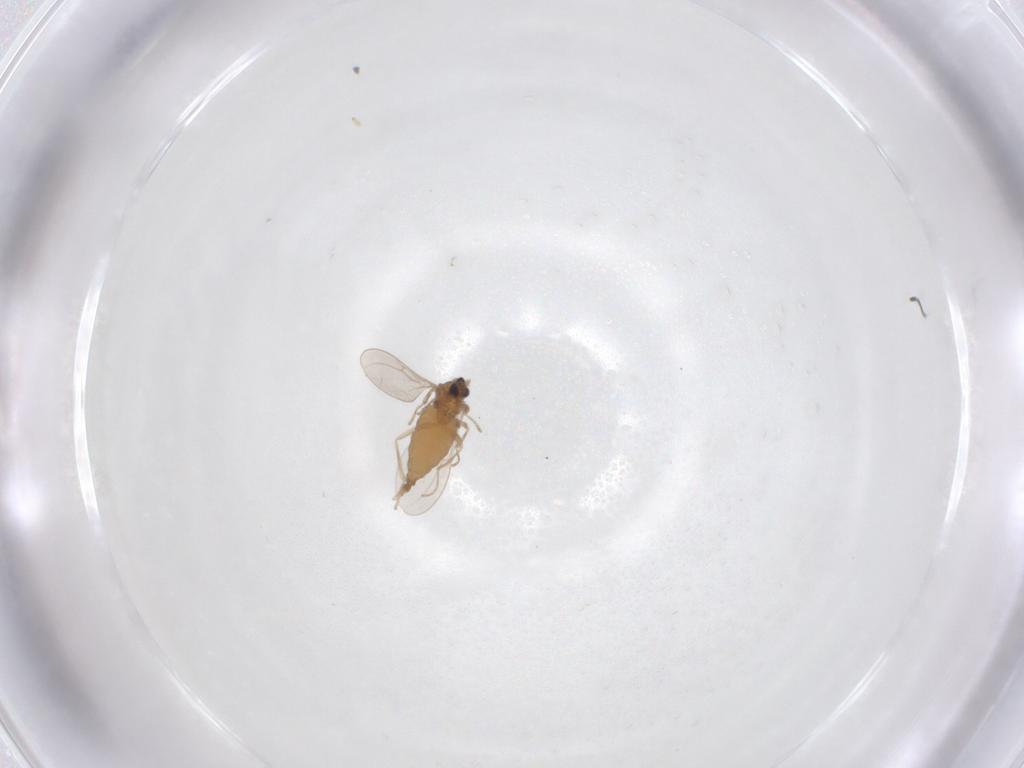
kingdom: Animalia
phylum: Arthropoda
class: Insecta
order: Diptera
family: Cecidomyiidae
